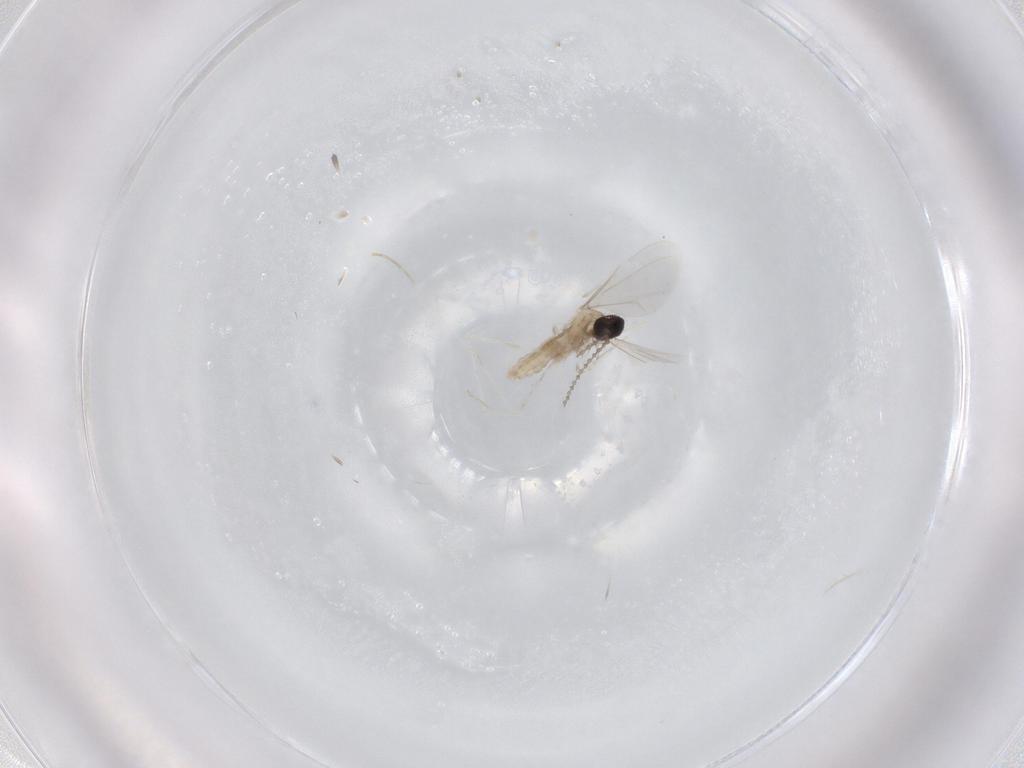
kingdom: Animalia
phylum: Arthropoda
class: Insecta
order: Diptera
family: Cecidomyiidae
